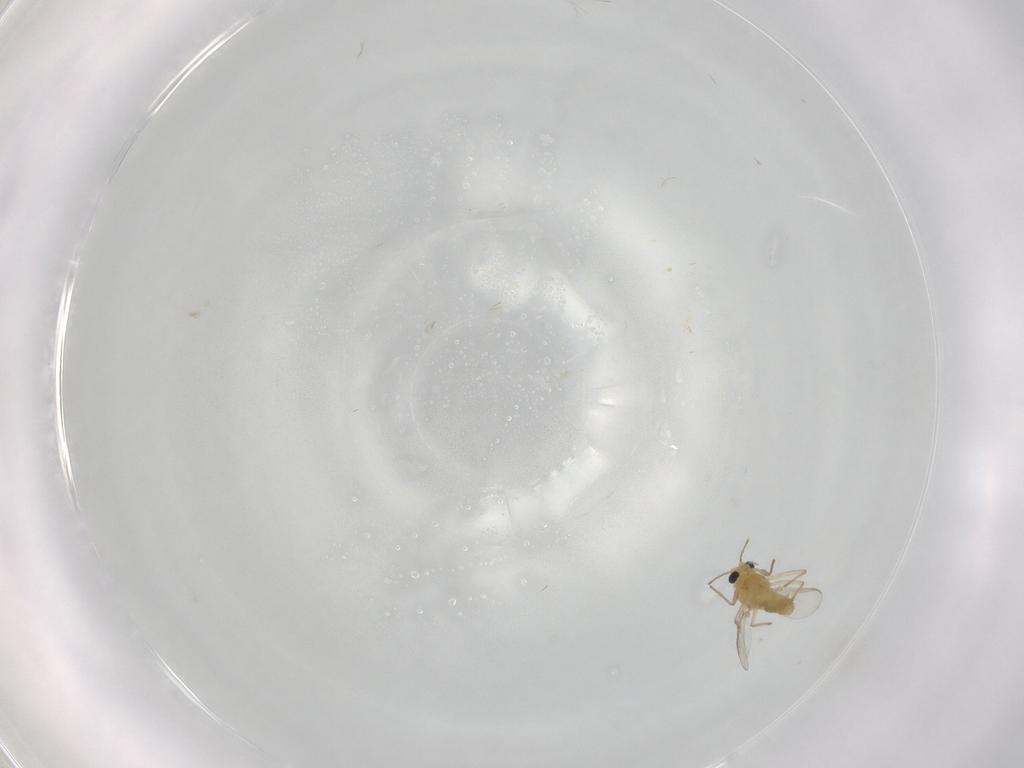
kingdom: Animalia
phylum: Arthropoda
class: Insecta
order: Diptera
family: Chironomidae
